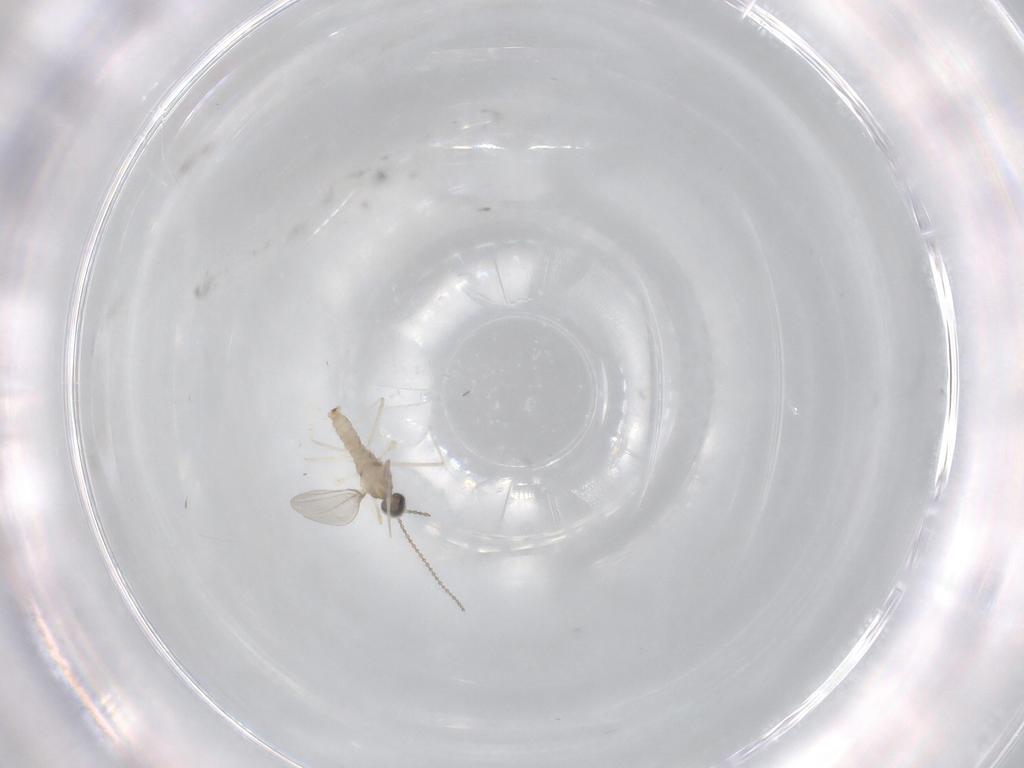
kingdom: Animalia
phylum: Arthropoda
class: Insecta
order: Diptera
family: Cecidomyiidae
